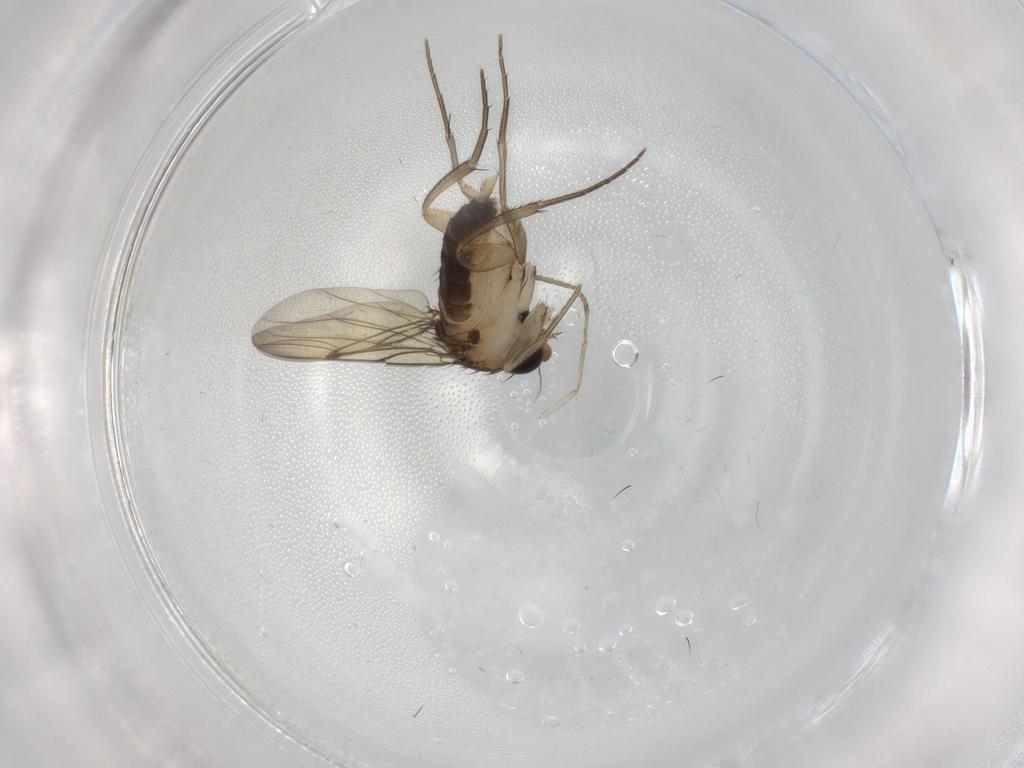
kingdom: Animalia
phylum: Arthropoda
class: Insecta
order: Diptera
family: Phoridae
